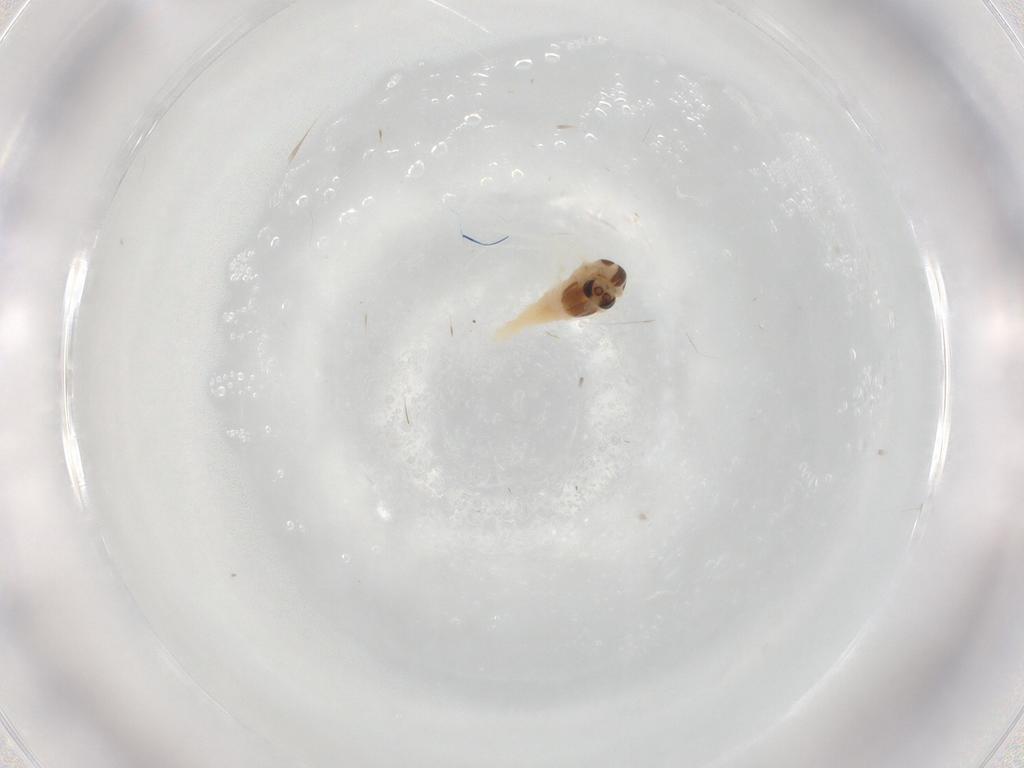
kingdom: Animalia
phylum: Arthropoda
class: Insecta
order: Diptera
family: Chironomidae
